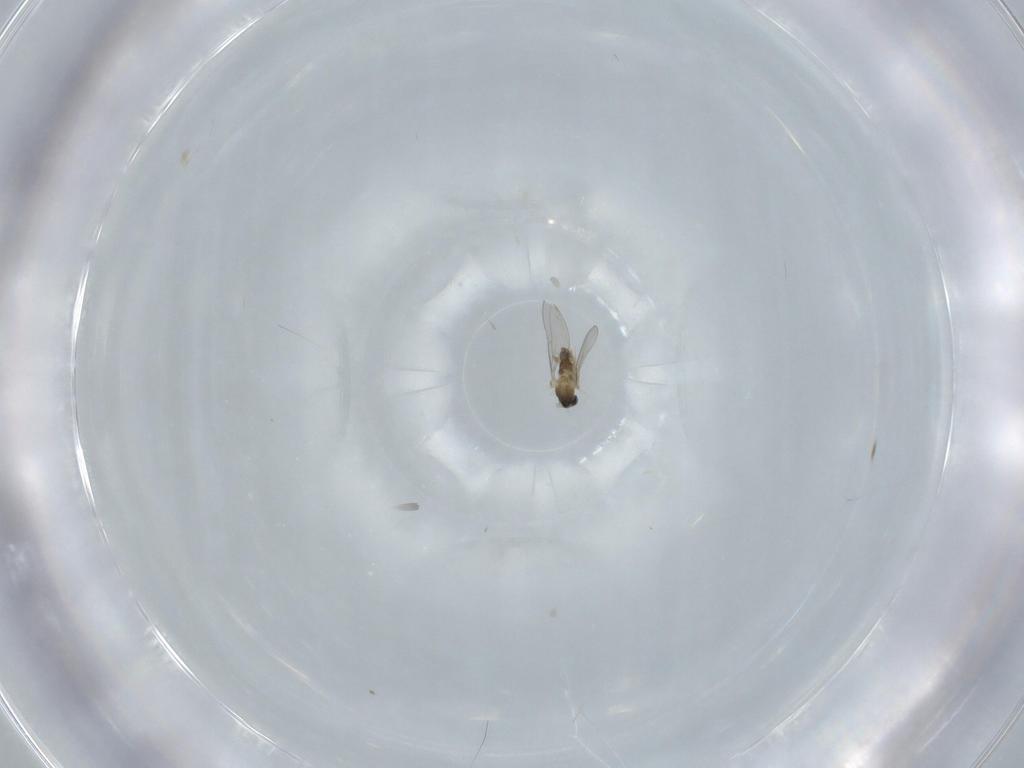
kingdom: Animalia
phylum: Arthropoda
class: Insecta
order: Diptera
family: Cecidomyiidae
